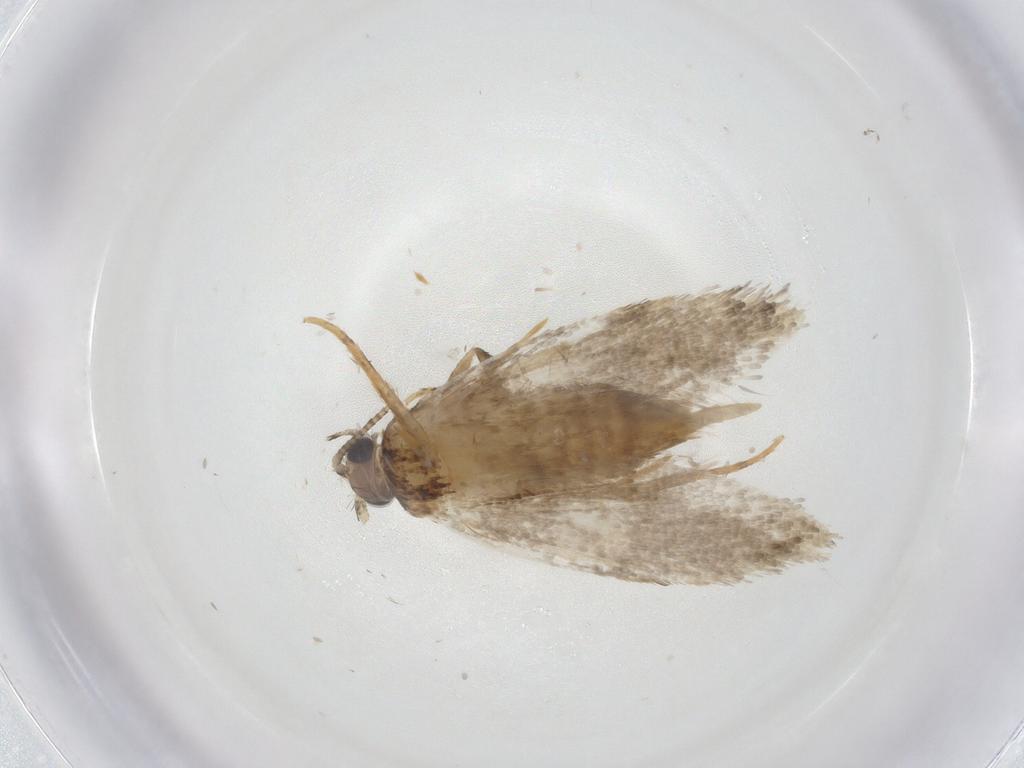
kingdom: Animalia
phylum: Arthropoda
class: Insecta
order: Lepidoptera
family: Tineidae
